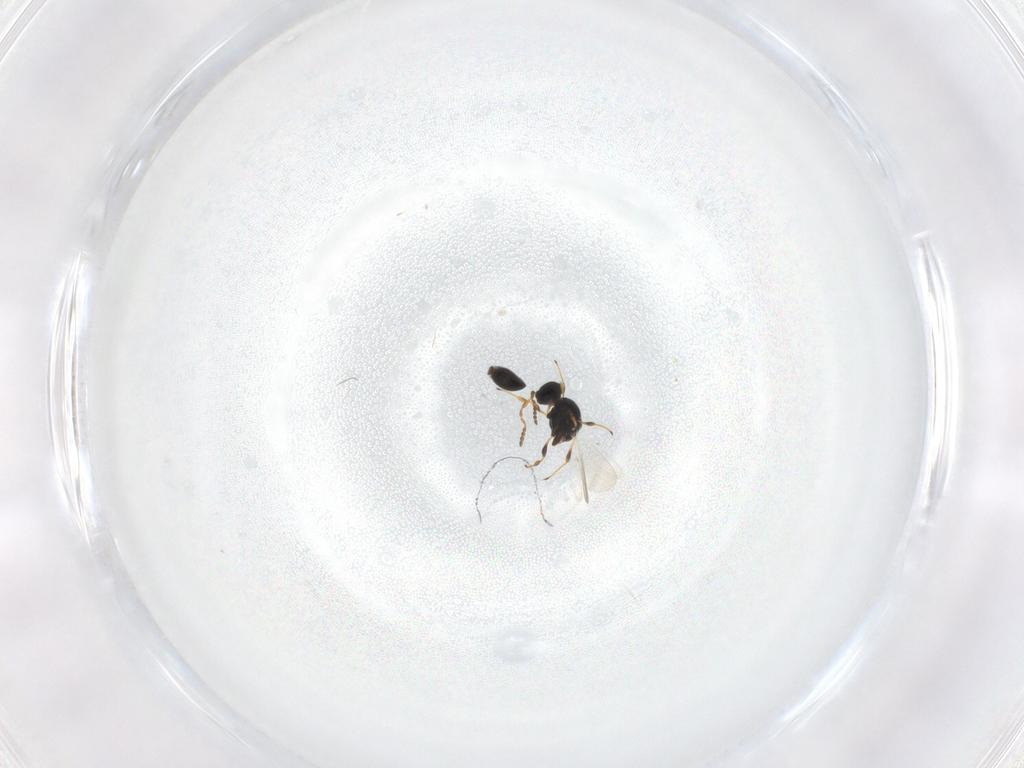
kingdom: Animalia
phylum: Arthropoda
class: Insecta
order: Hymenoptera
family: Platygastridae
